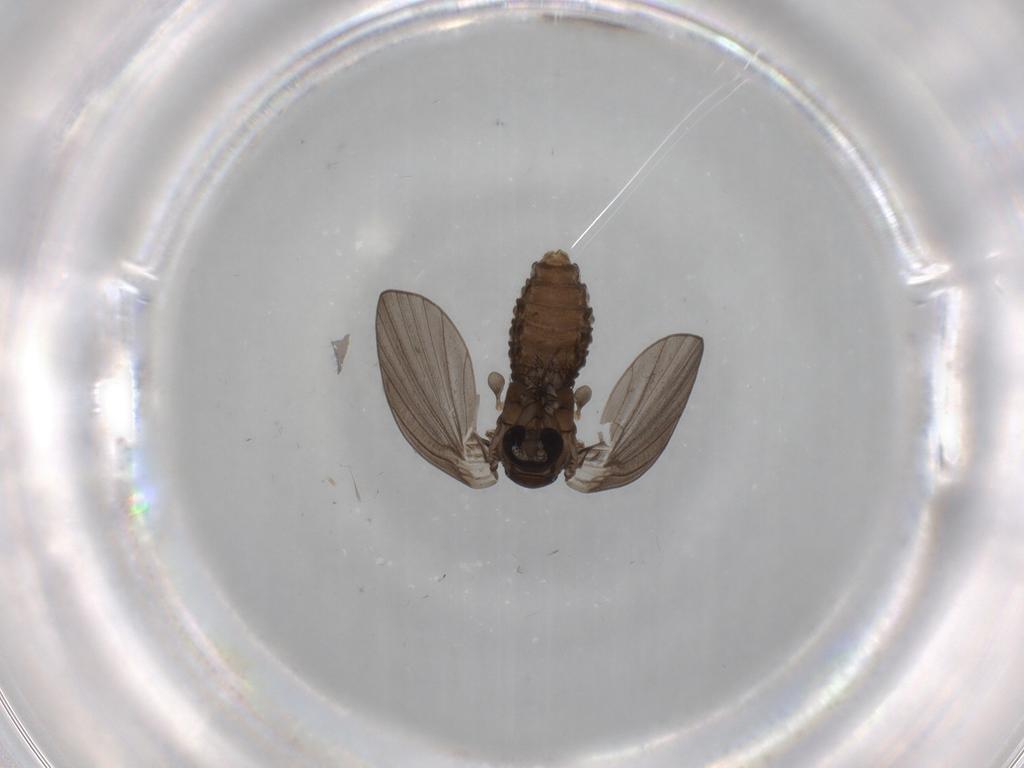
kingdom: Animalia
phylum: Arthropoda
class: Insecta
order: Diptera
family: Psychodidae
